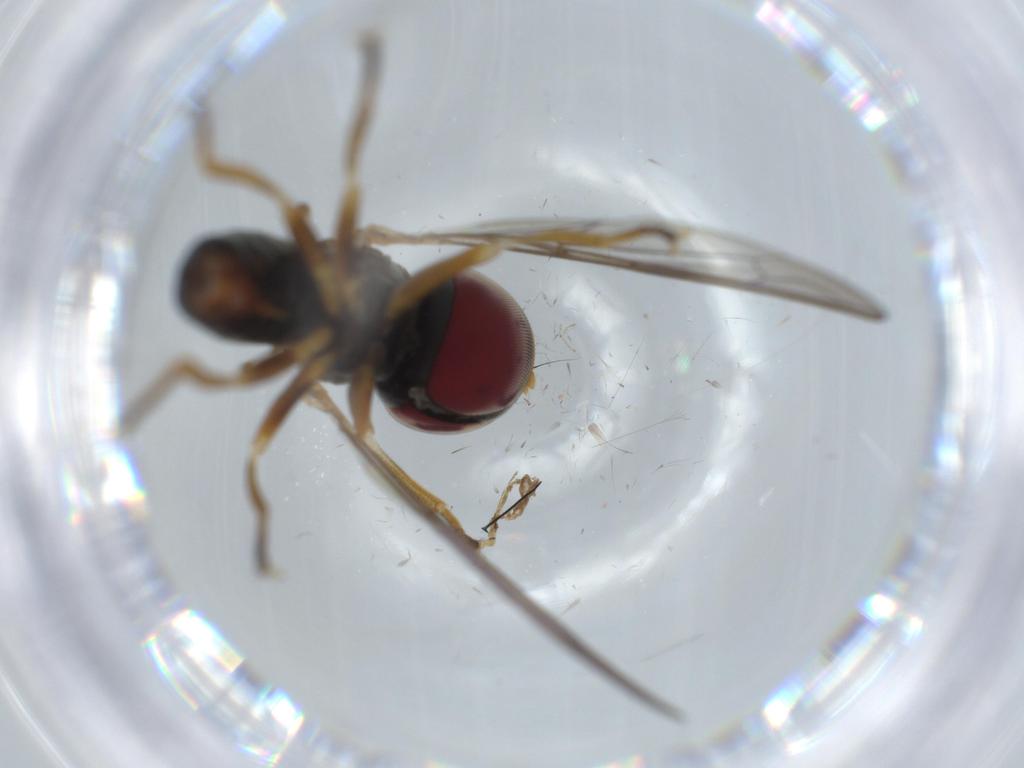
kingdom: Animalia
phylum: Arthropoda
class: Insecta
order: Diptera
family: Pipunculidae
